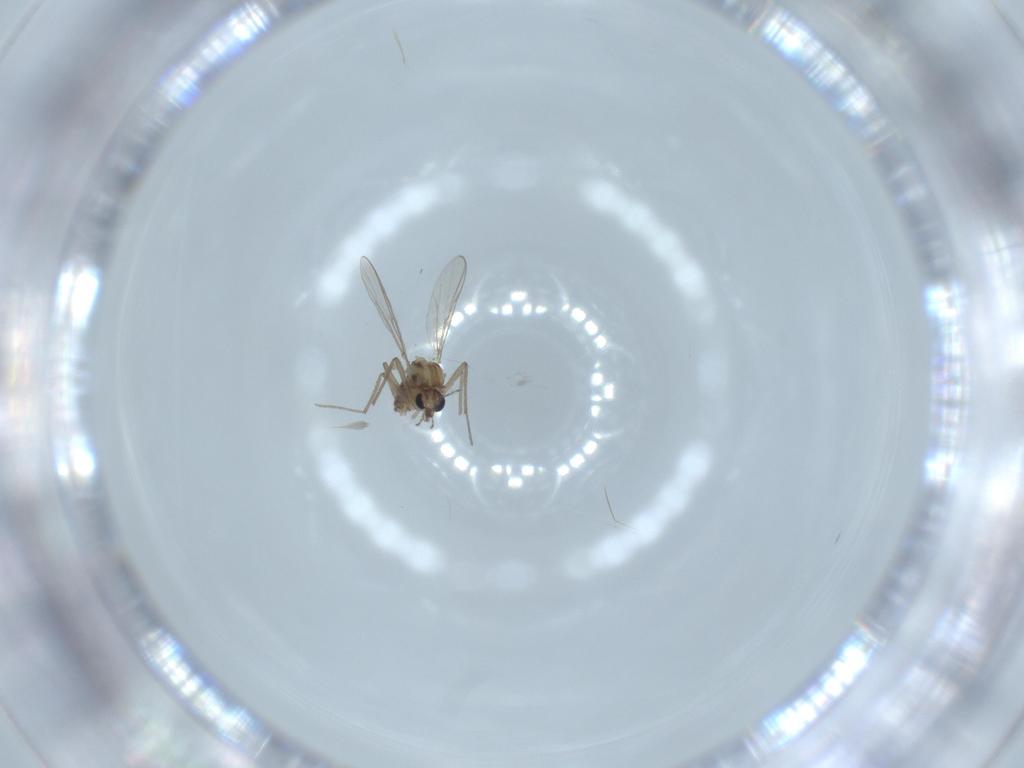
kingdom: Animalia
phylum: Arthropoda
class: Insecta
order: Diptera
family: Phoridae
